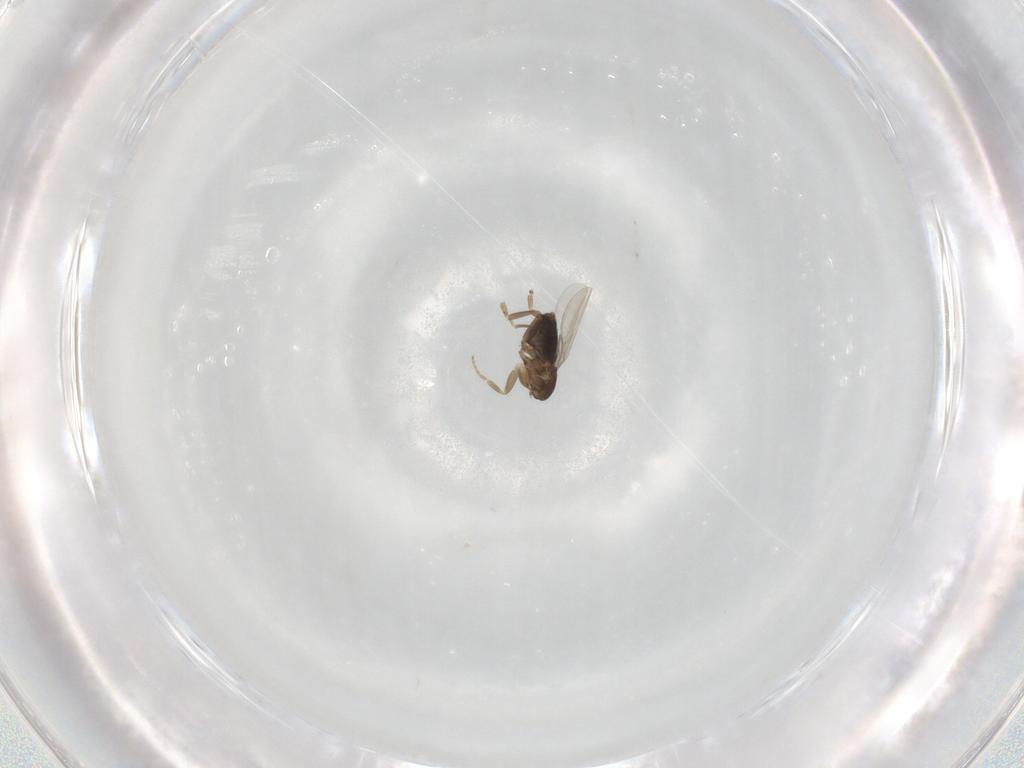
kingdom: Animalia
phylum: Arthropoda
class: Insecta
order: Diptera
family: Phoridae
